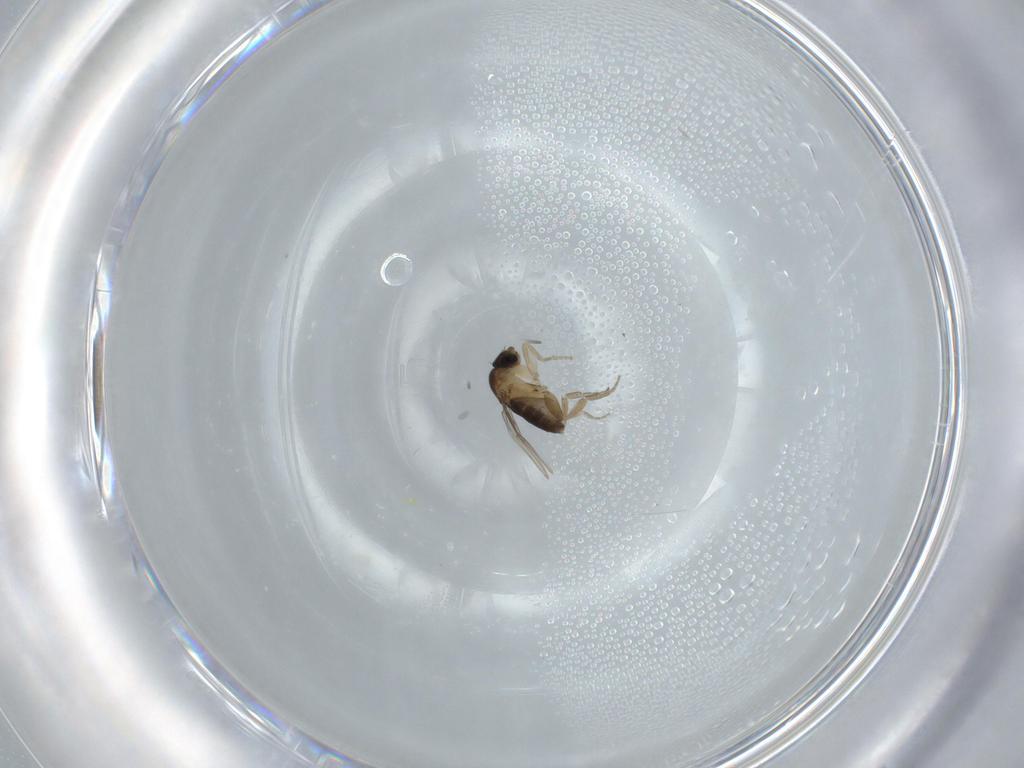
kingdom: Animalia
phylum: Arthropoda
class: Insecta
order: Diptera
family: Phoridae
